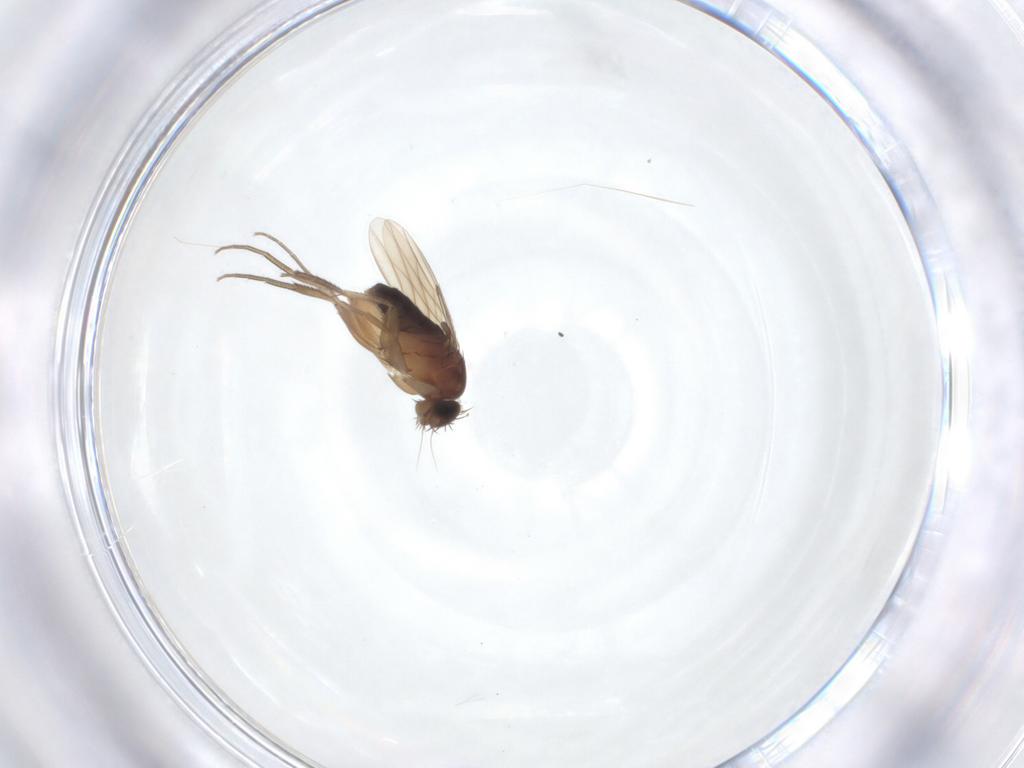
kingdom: Animalia
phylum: Arthropoda
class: Insecta
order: Diptera
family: Phoridae
